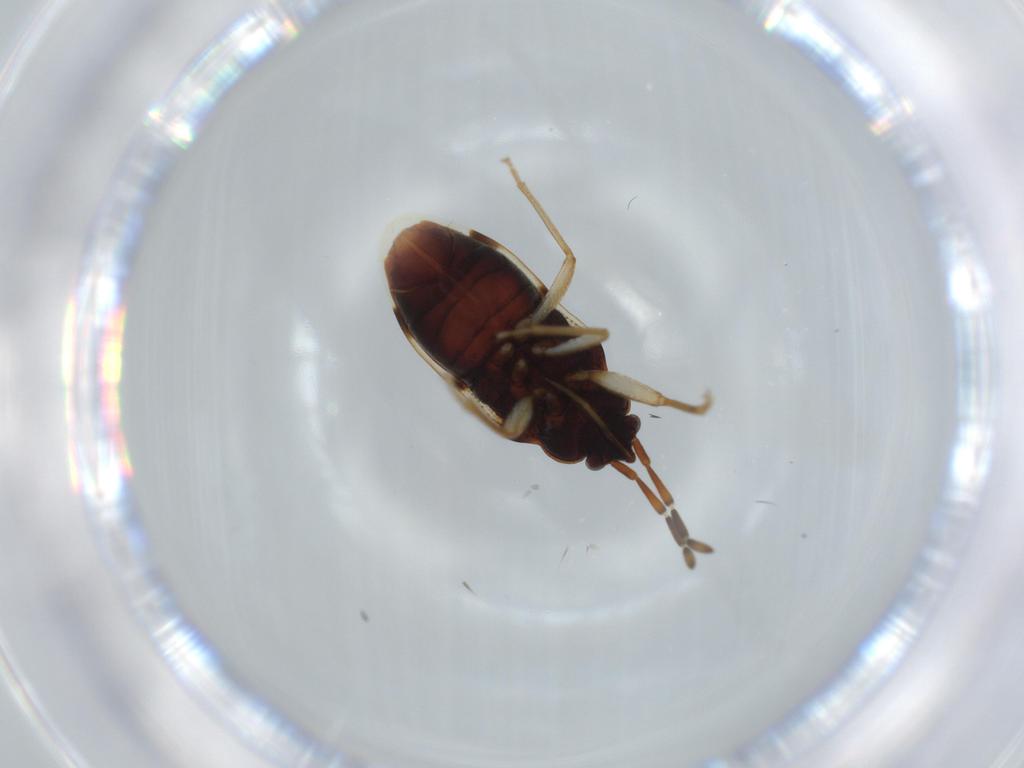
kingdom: Animalia
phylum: Arthropoda
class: Insecta
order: Hemiptera
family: Rhyparochromidae
